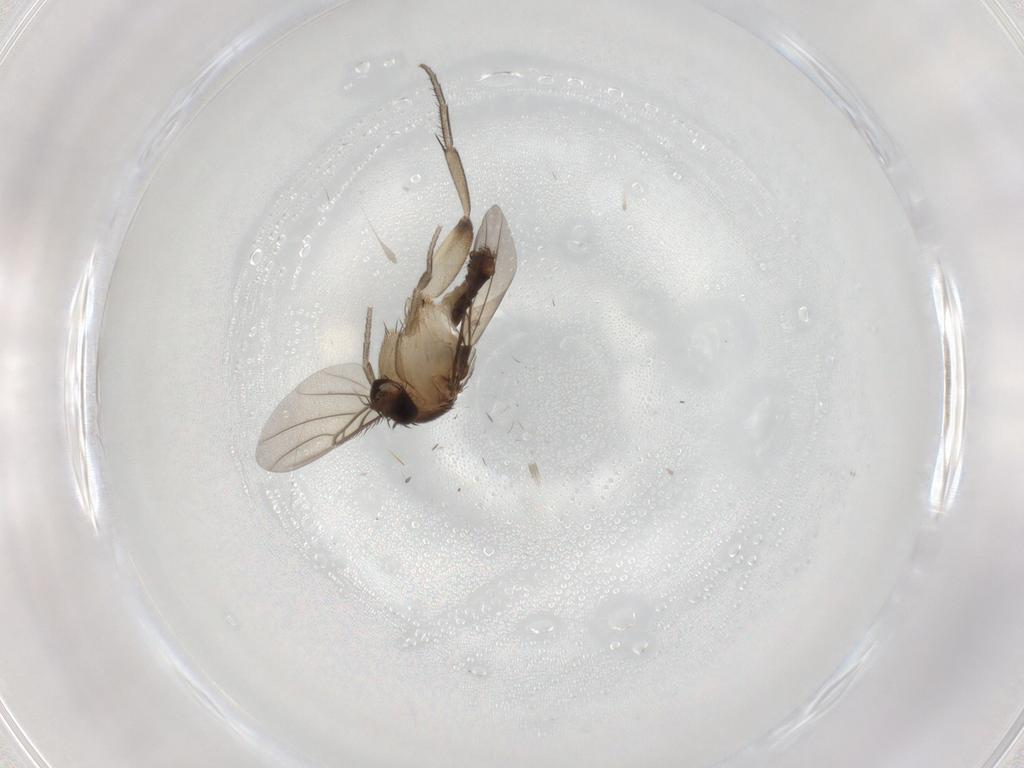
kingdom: Animalia
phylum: Arthropoda
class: Insecta
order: Diptera
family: Phoridae
